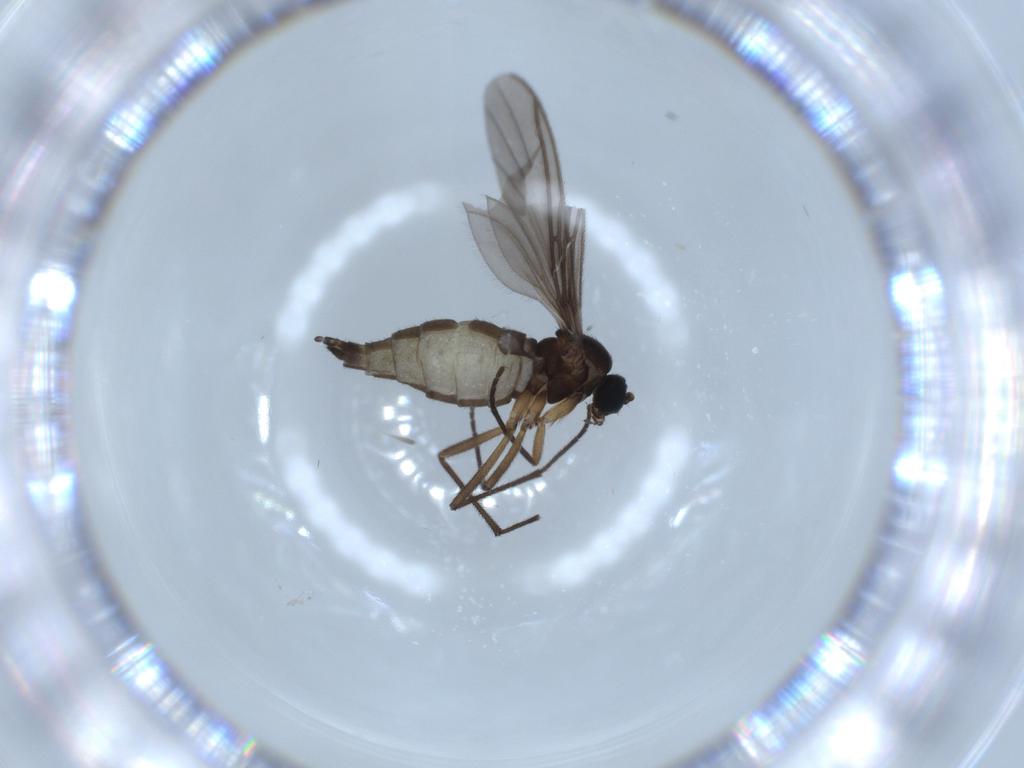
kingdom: Animalia
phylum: Arthropoda
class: Insecta
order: Diptera
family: Sciaridae
